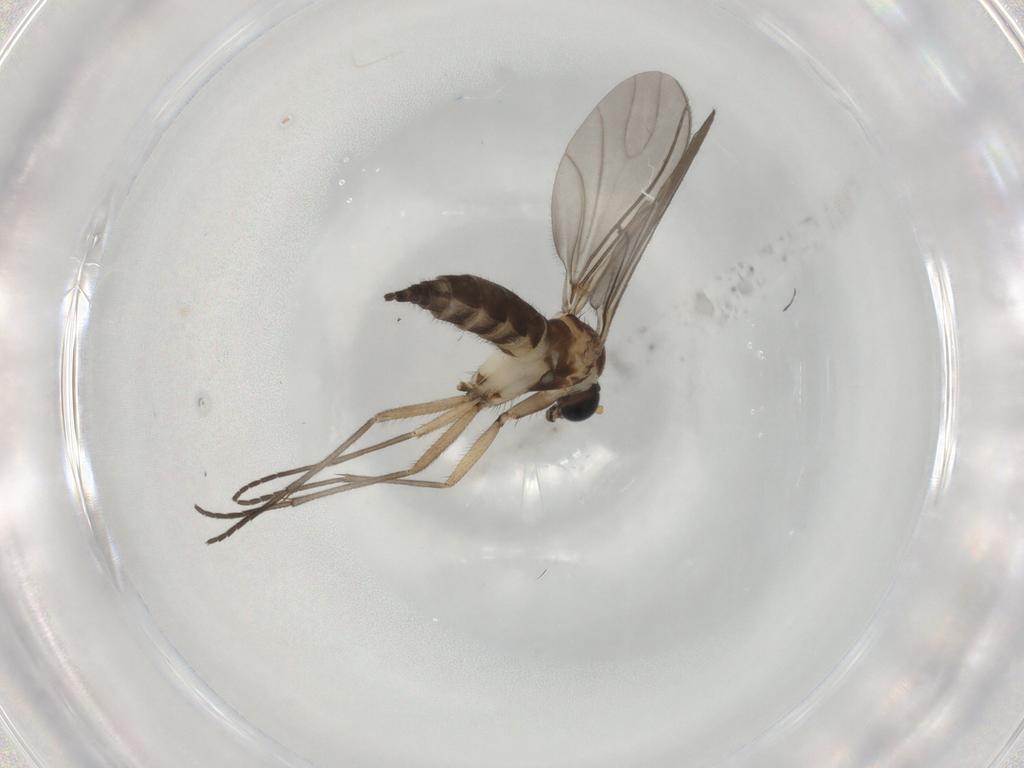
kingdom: Animalia
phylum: Arthropoda
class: Insecta
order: Diptera
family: Sciaridae
